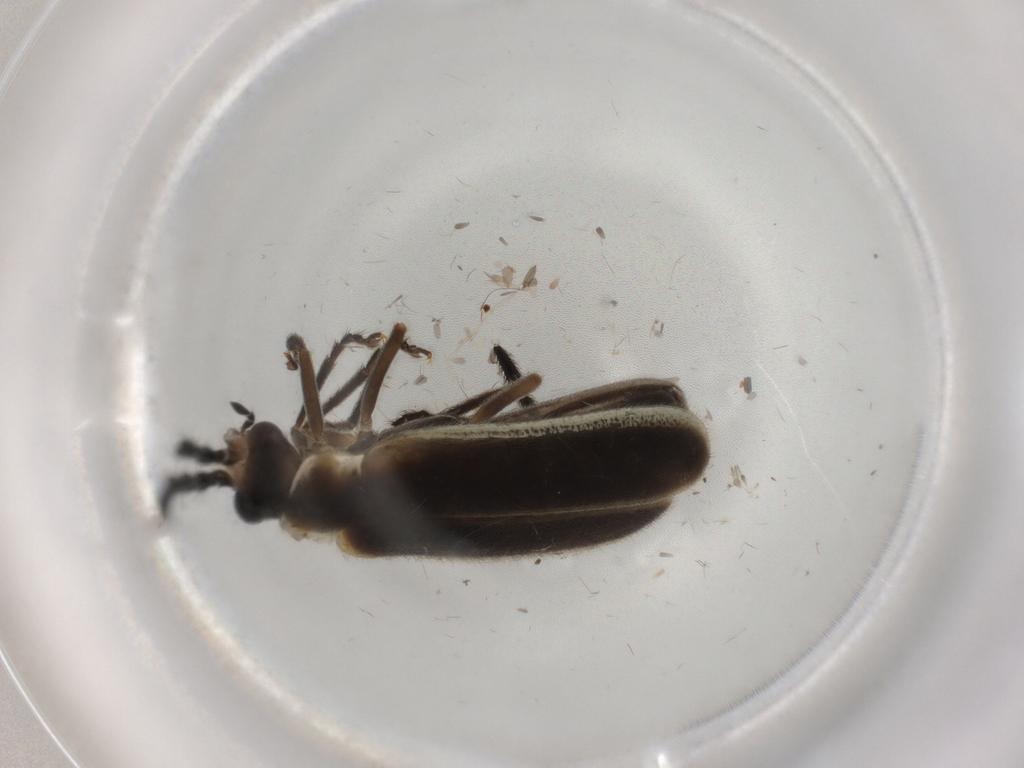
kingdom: Animalia
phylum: Arthropoda
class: Insecta
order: Coleoptera
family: Cantharidae
